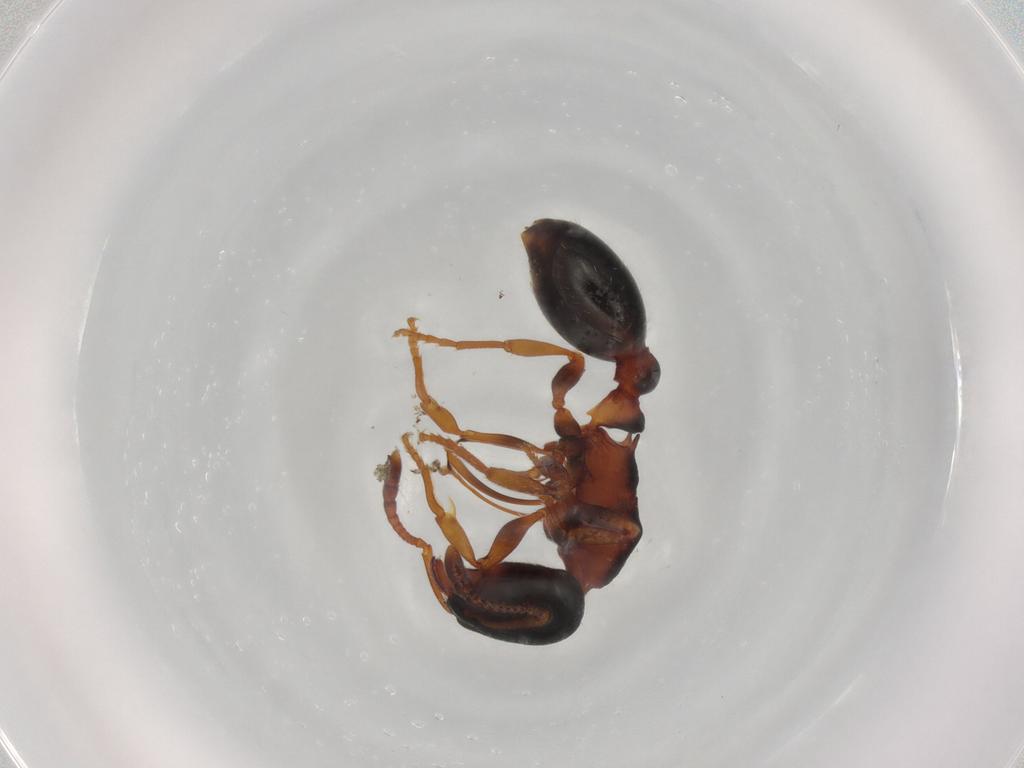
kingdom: Animalia
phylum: Arthropoda
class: Insecta
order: Hymenoptera
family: Formicidae
